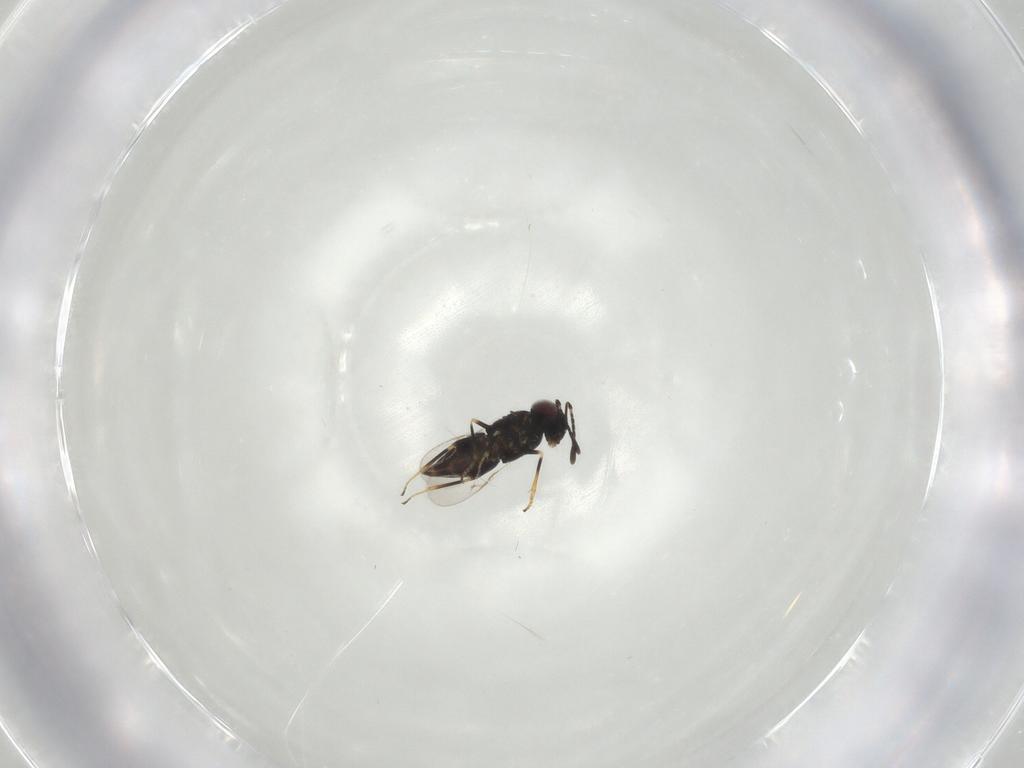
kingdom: Animalia
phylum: Arthropoda
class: Insecta
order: Hymenoptera
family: Encyrtidae
